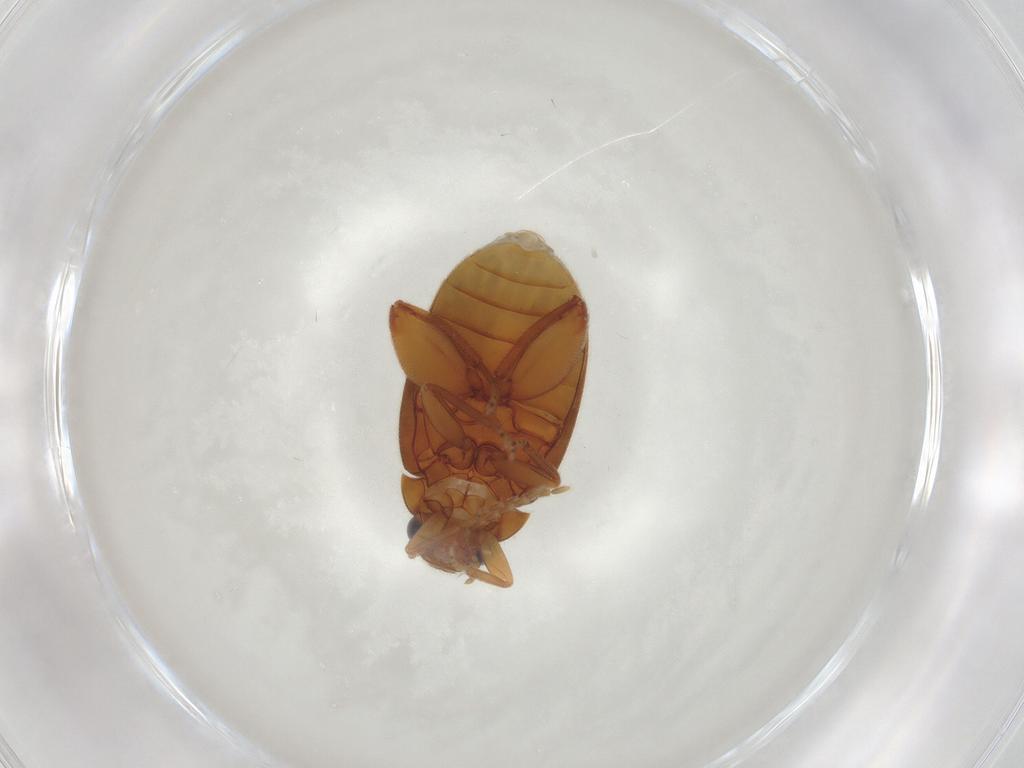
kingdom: Animalia
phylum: Arthropoda
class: Insecta
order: Coleoptera
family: Scirtidae
